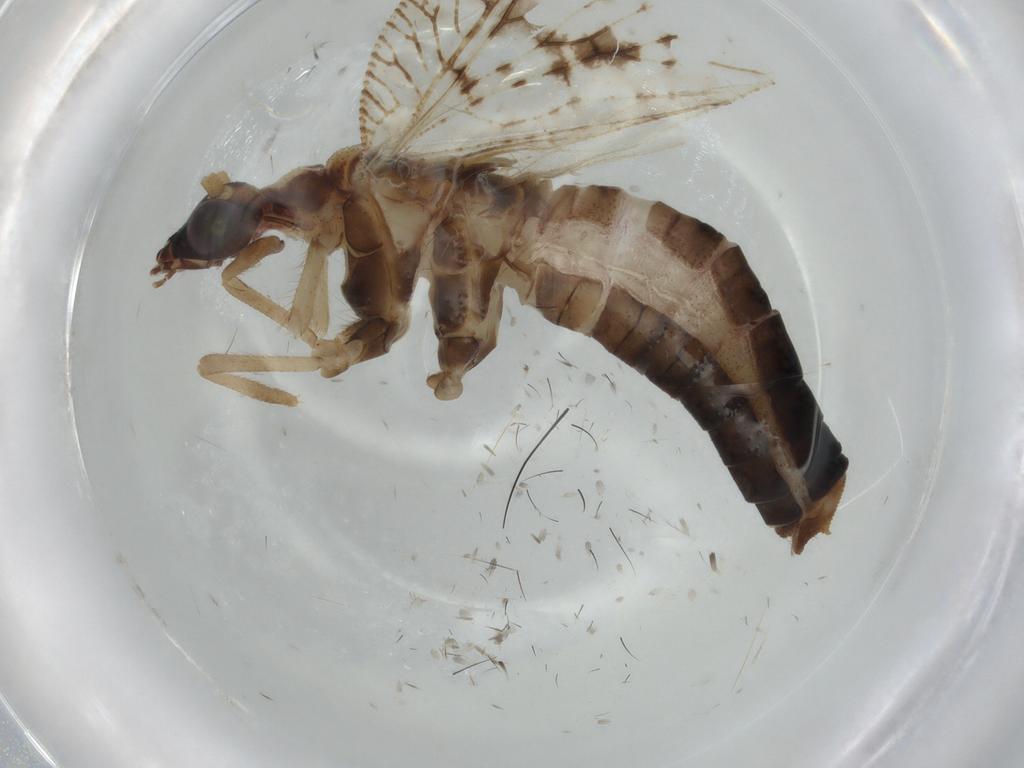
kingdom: Animalia
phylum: Arthropoda
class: Insecta
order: Neuroptera
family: Hemerobiidae
